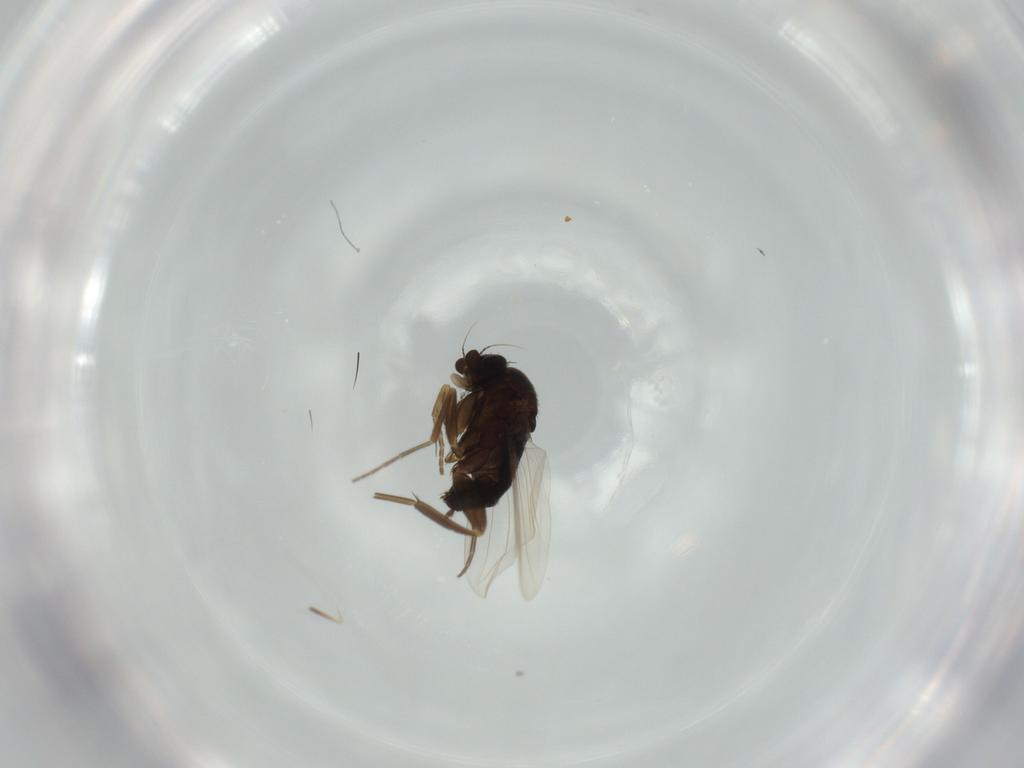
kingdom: Animalia
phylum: Arthropoda
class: Insecta
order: Diptera
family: Phoridae
